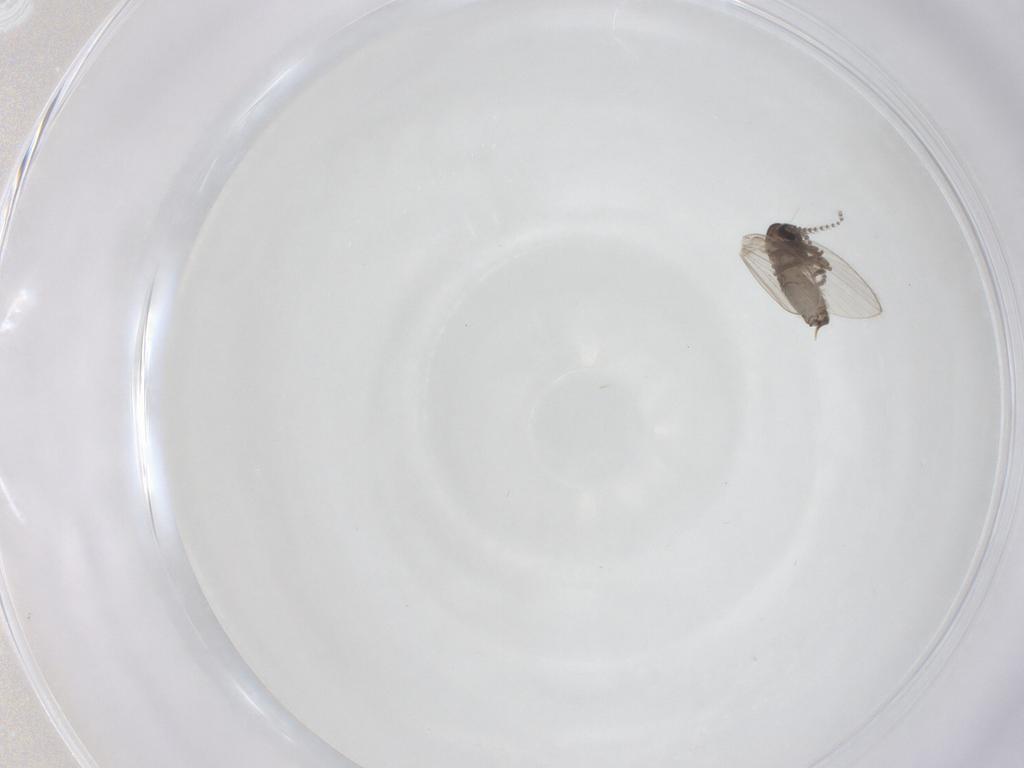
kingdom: Animalia
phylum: Arthropoda
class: Insecta
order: Diptera
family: Psychodidae
